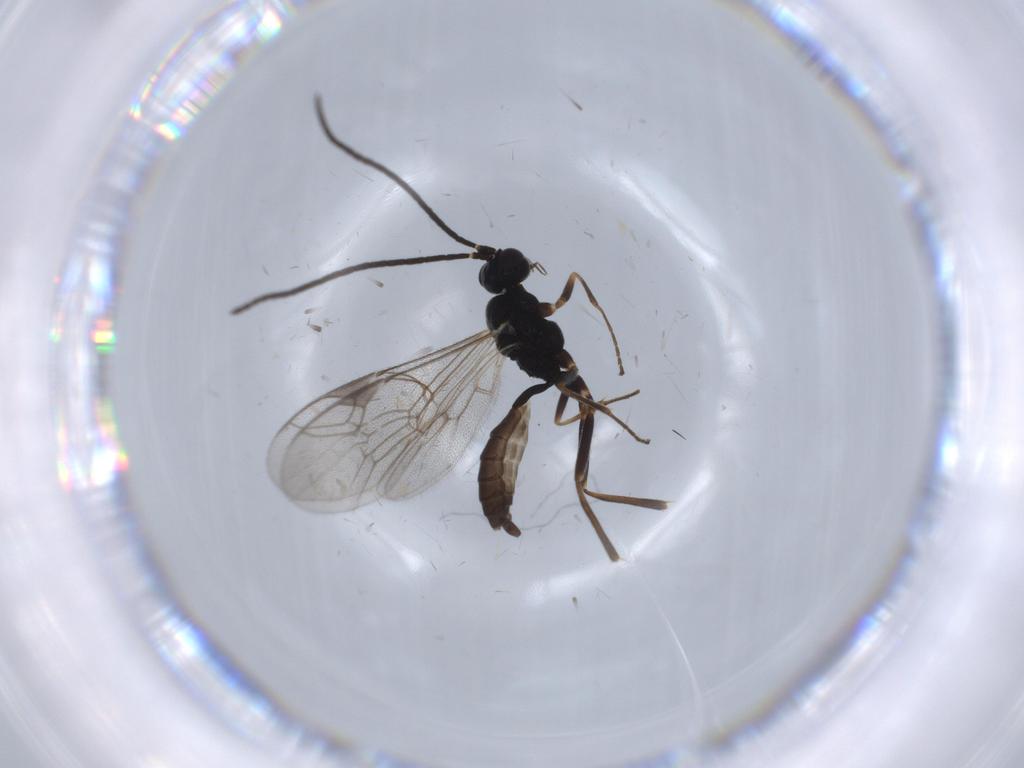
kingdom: Animalia
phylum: Arthropoda
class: Insecta
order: Hymenoptera
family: Ichneumonidae
